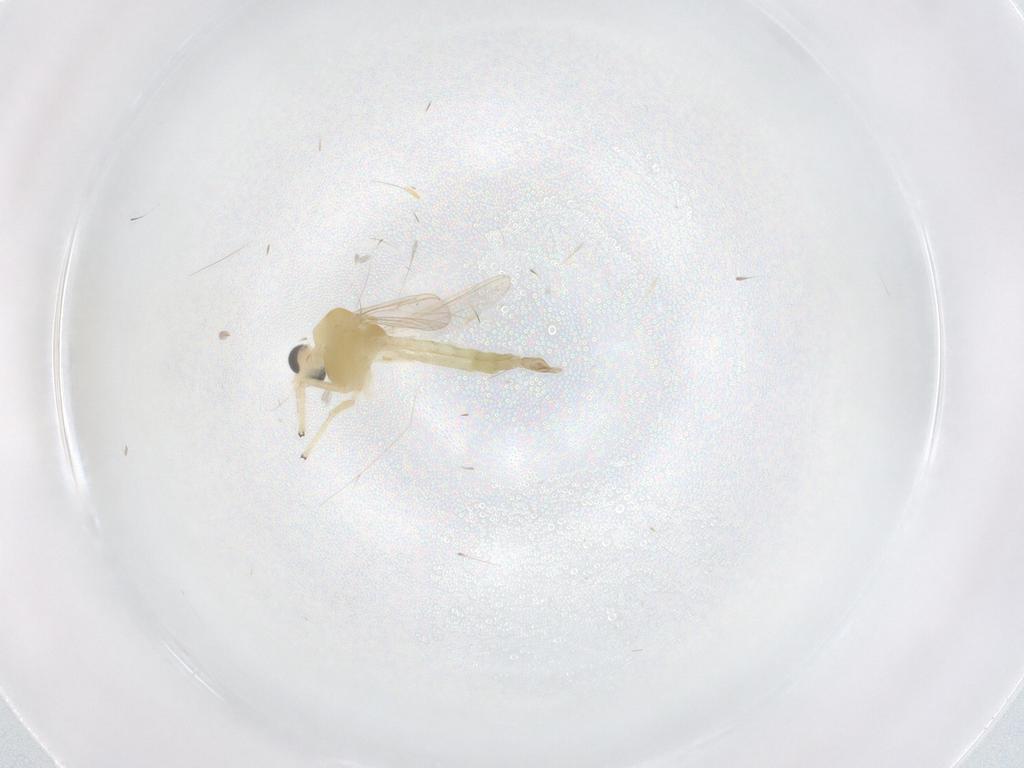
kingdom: Animalia
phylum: Arthropoda
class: Insecta
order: Diptera
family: Chironomidae
